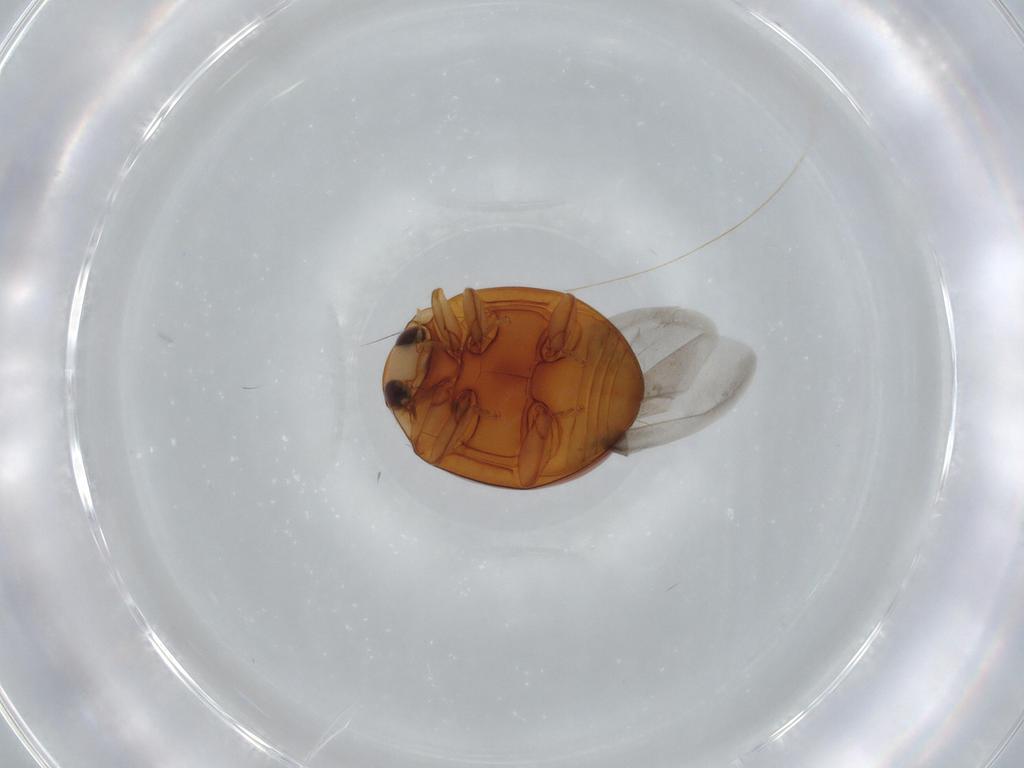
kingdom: Animalia
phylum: Arthropoda
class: Insecta
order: Coleoptera
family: Coccinellidae
